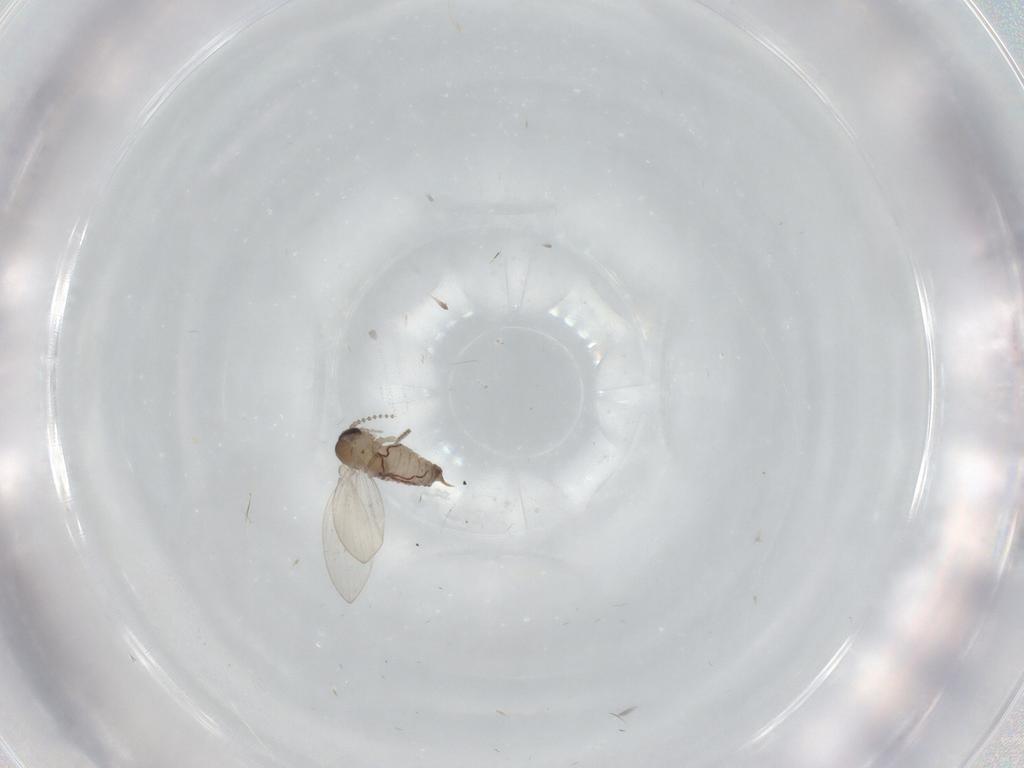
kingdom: Animalia
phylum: Arthropoda
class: Insecta
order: Diptera
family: Psychodidae
